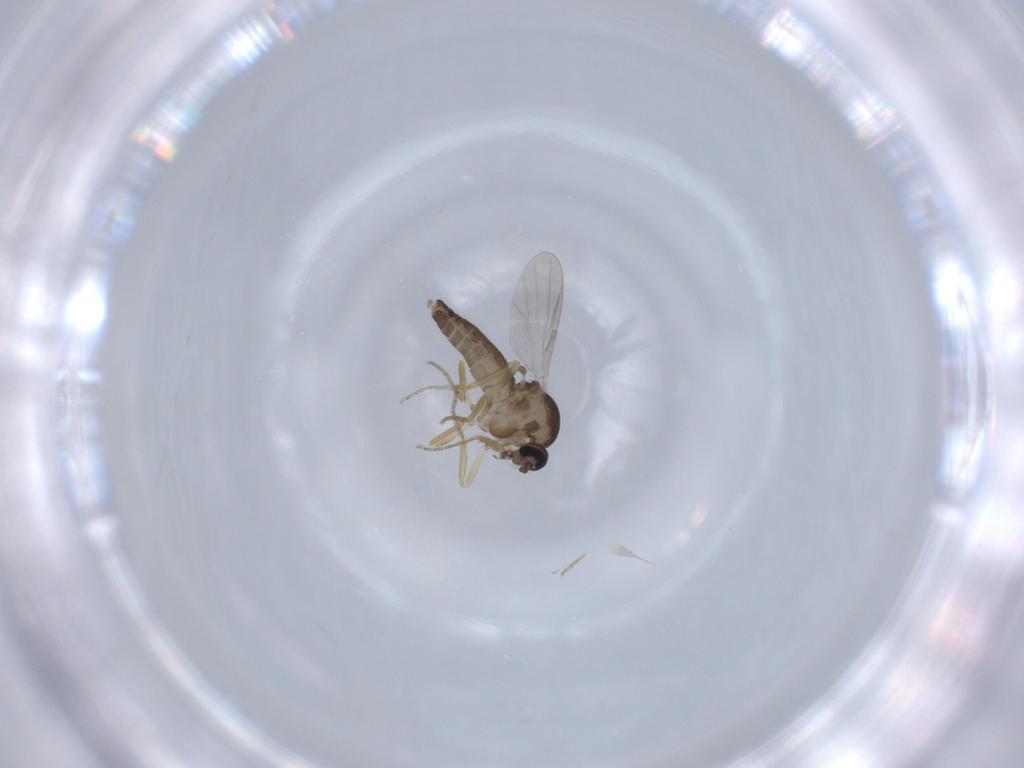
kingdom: Animalia
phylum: Arthropoda
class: Insecta
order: Diptera
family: Ceratopogonidae
